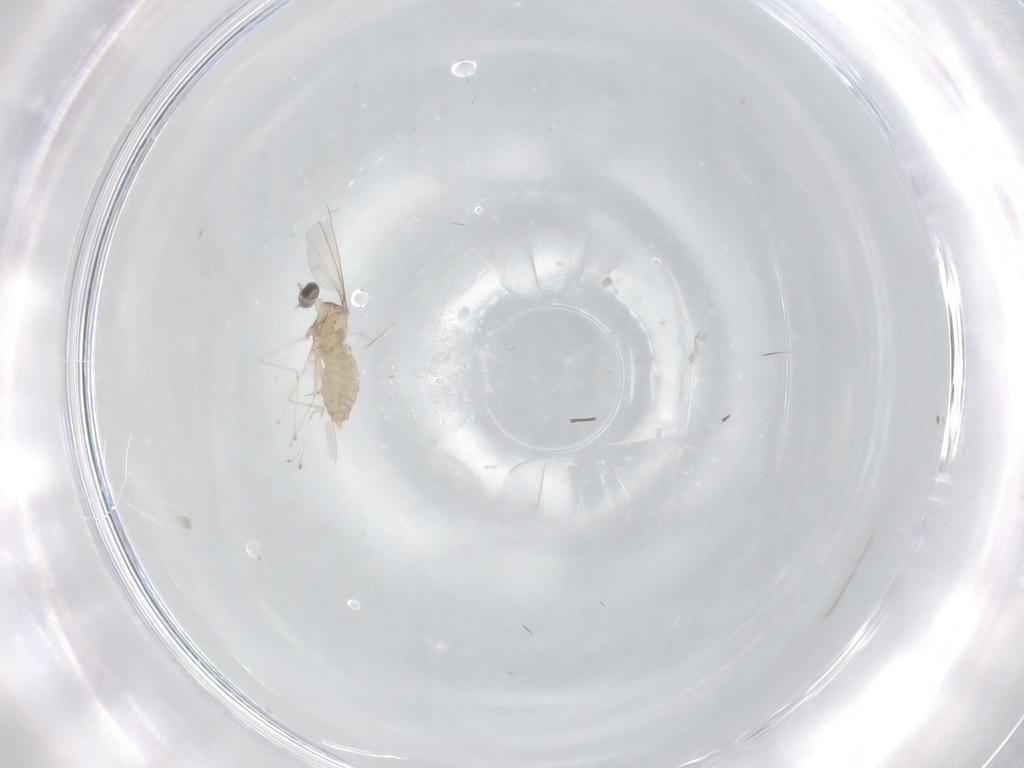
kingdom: Animalia
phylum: Arthropoda
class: Insecta
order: Diptera
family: Cecidomyiidae
